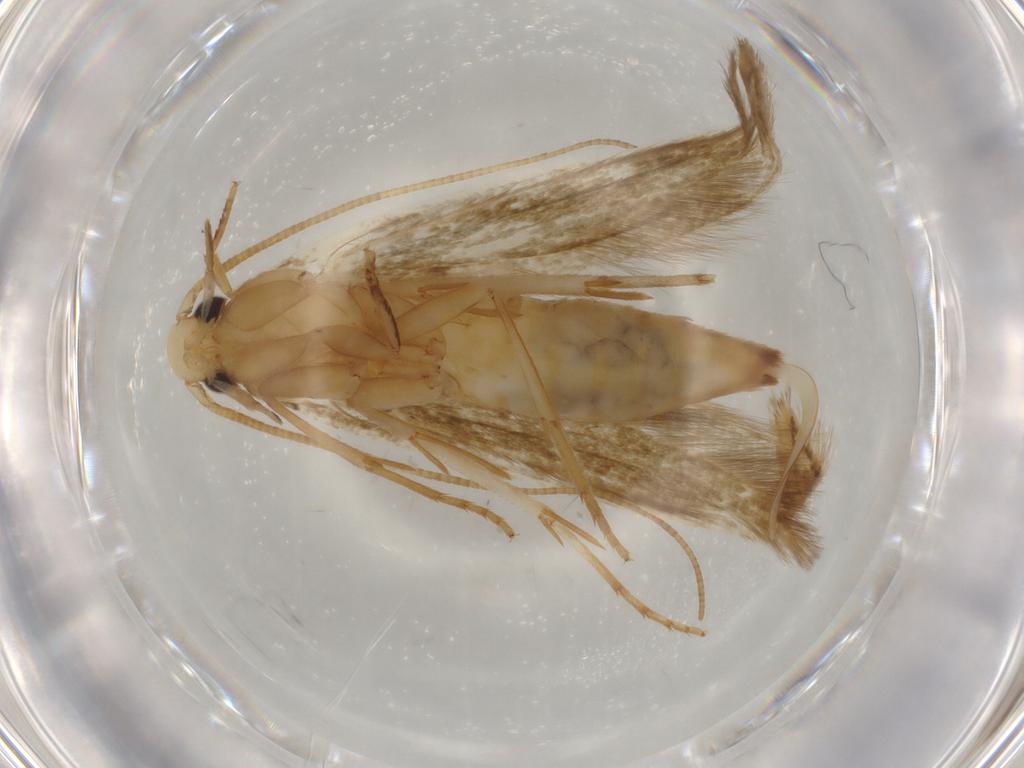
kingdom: Animalia
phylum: Arthropoda
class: Insecta
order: Lepidoptera
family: Tineidae
